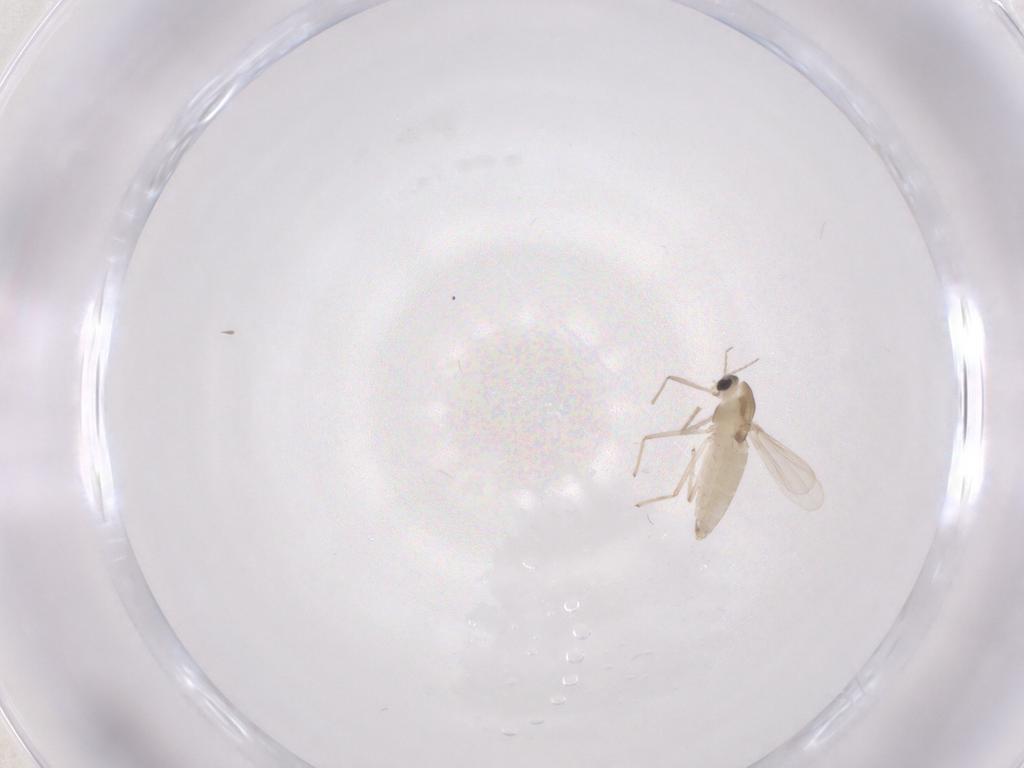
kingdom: Animalia
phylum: Arthropoda
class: Insecta
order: Diptera
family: Chironomidae
